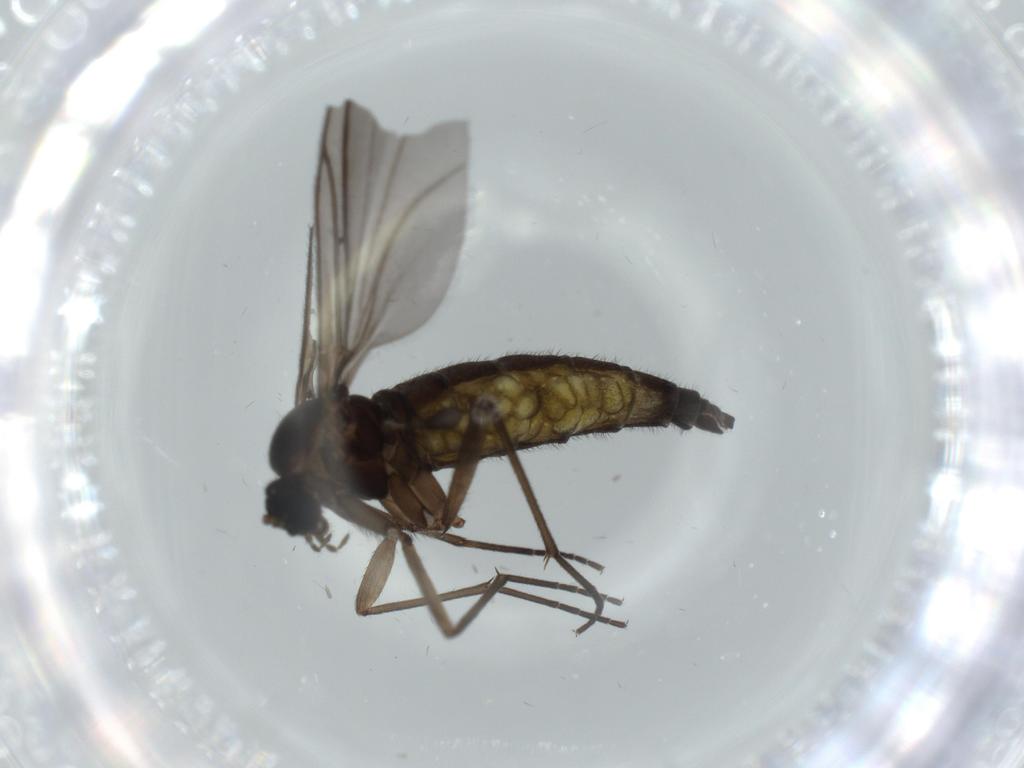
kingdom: Animalia
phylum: Arthropoda
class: Insecta
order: Diptera
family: Sciaridae
